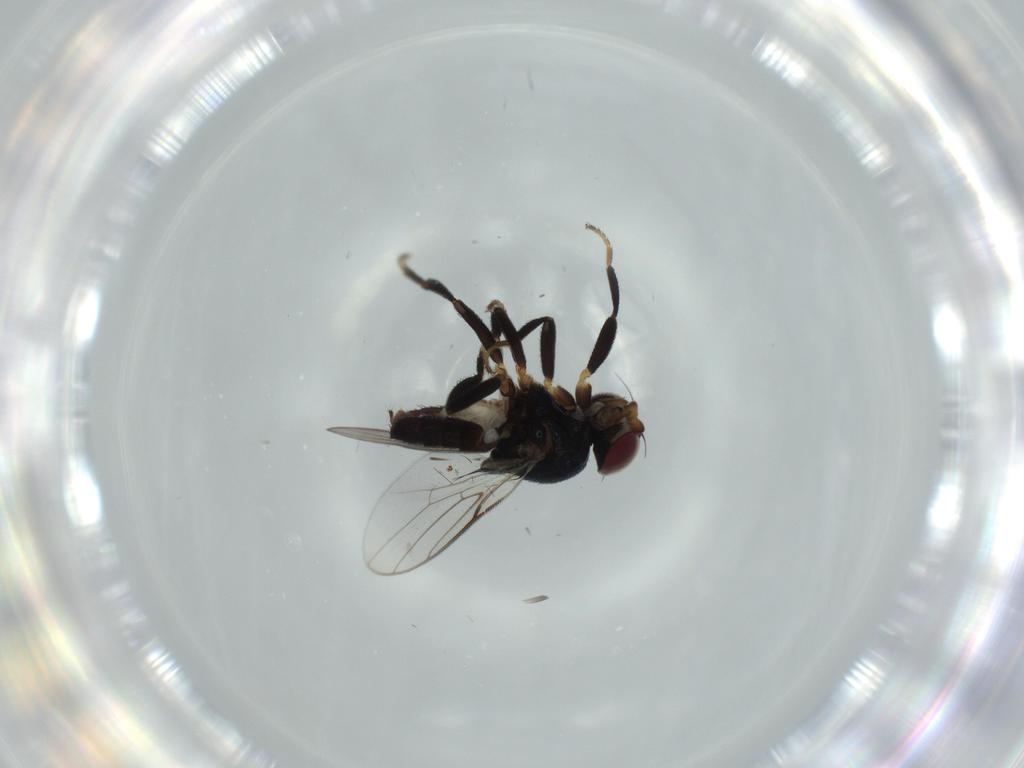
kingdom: Animalia
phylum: Arthropoda
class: Insecta
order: Diptera
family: Chloropidae
